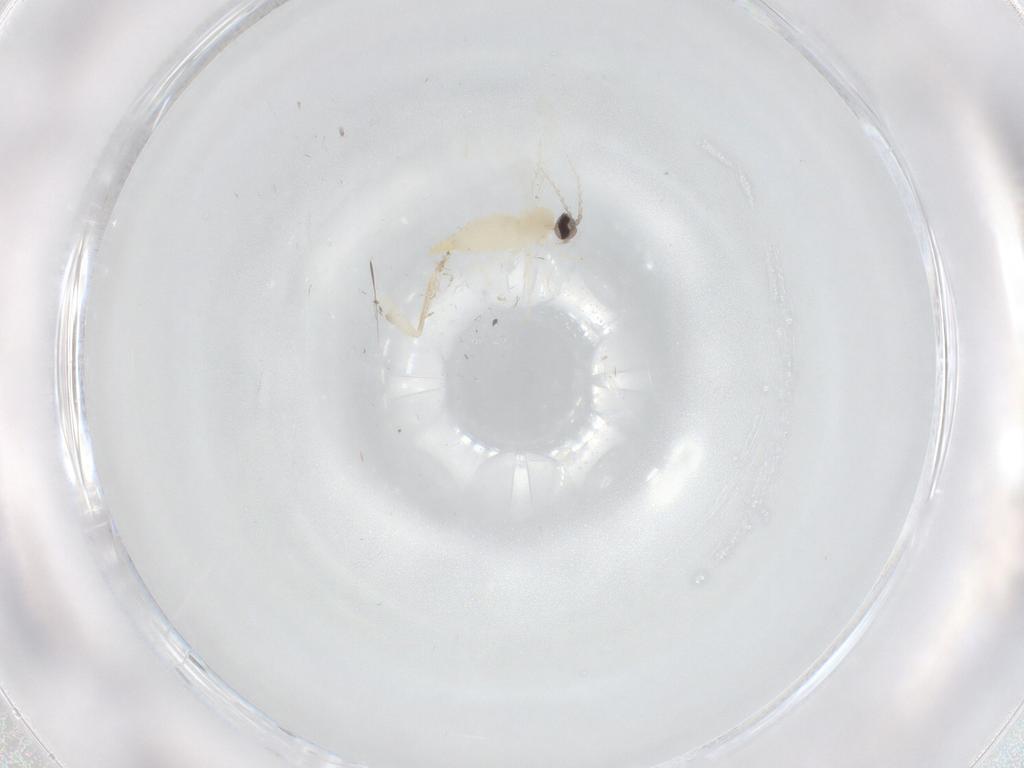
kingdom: Animalia
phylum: Arthropoda
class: Insecta
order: Diptera
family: Cecidomyiidae
